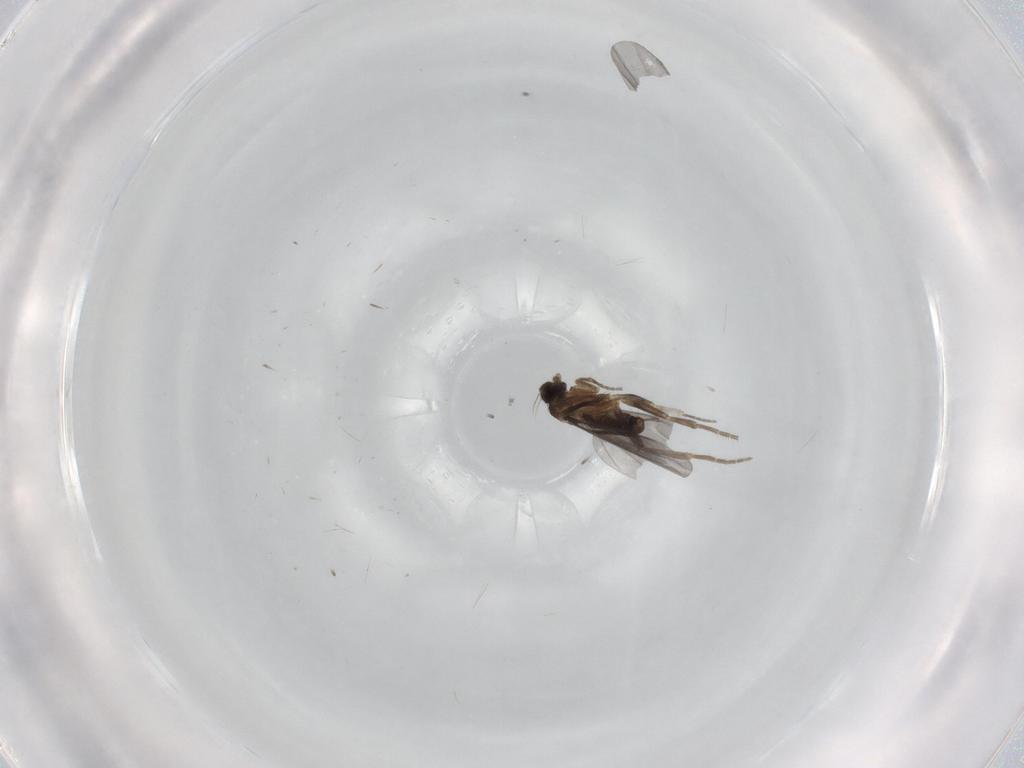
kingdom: Animalia
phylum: Arthropoda
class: Insecta
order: Diptera
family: Phoridae
